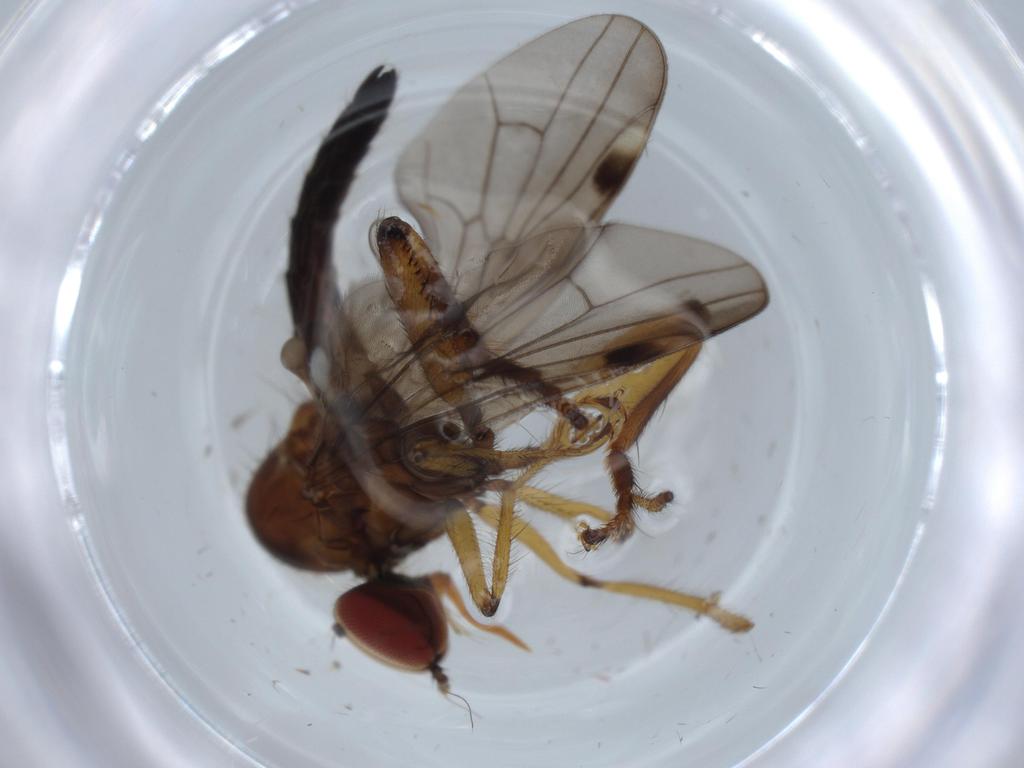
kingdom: Animalia
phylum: Arthropoda
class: Insecta
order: Diptera
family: Hybotidae
